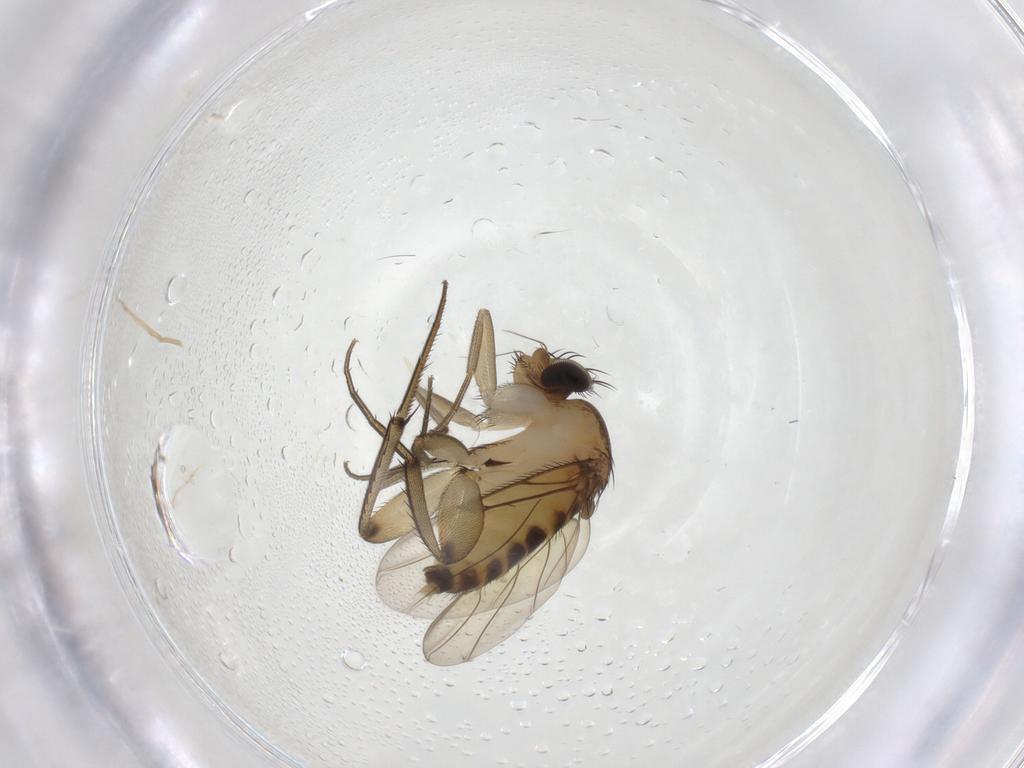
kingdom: Animalia
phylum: Arthropoda
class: Insecta
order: Diptera
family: Phoridae
